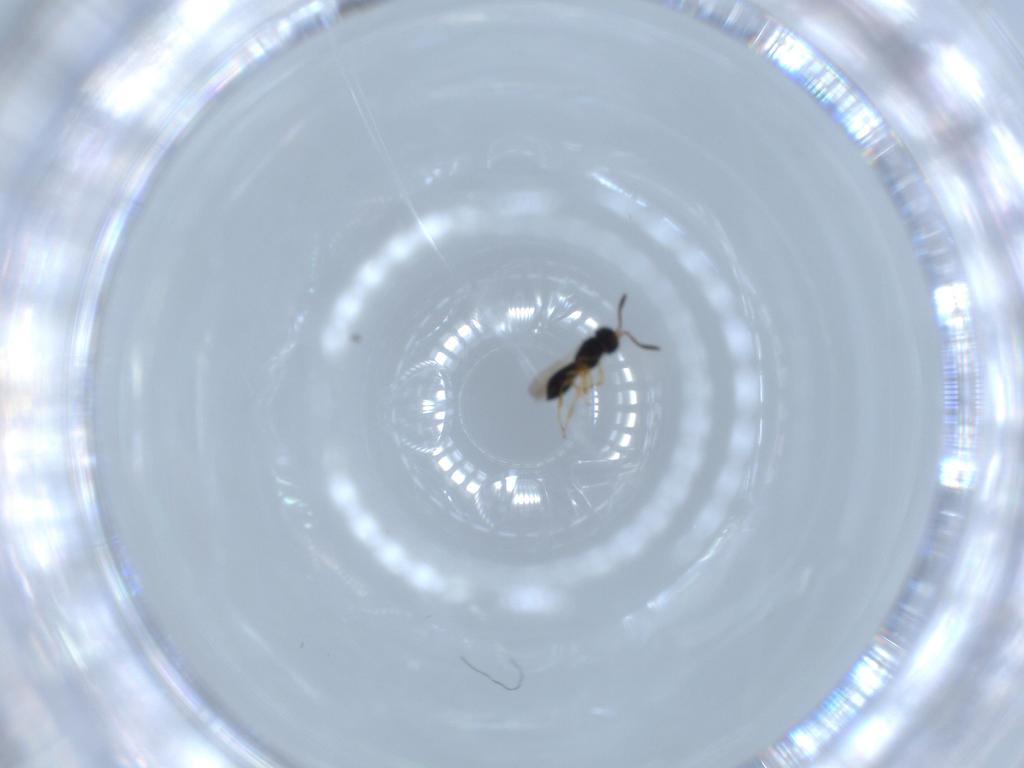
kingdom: Animalia
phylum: Arthropoda
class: Insecta
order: Hymenoptera
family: Scelionidae
